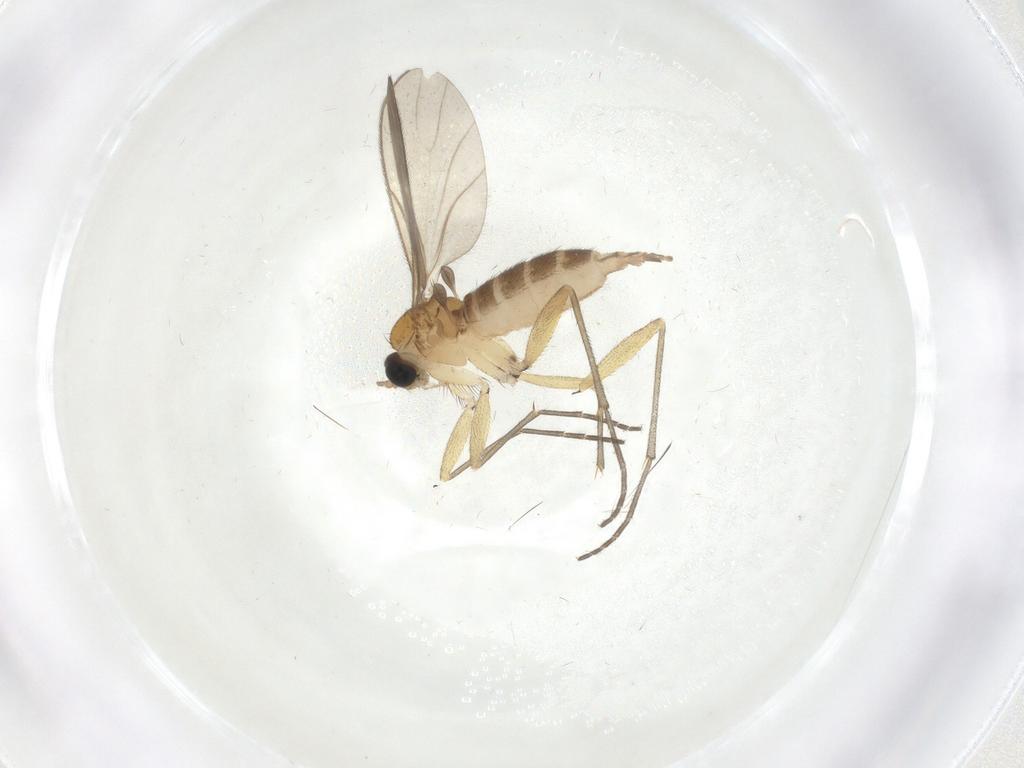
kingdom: Animalia
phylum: Arthropoda
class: Insecta
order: Diptera
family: Sciaridae
